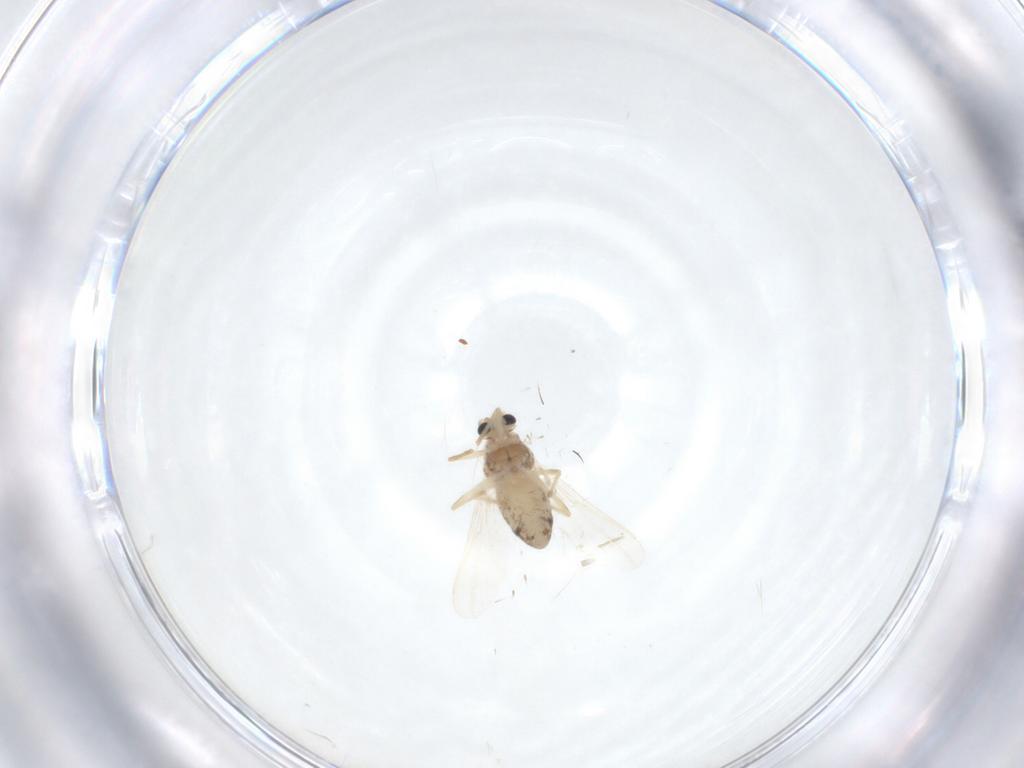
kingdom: Animalia
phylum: Arthropoda
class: Insecta
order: Diptera
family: Chironomidae
